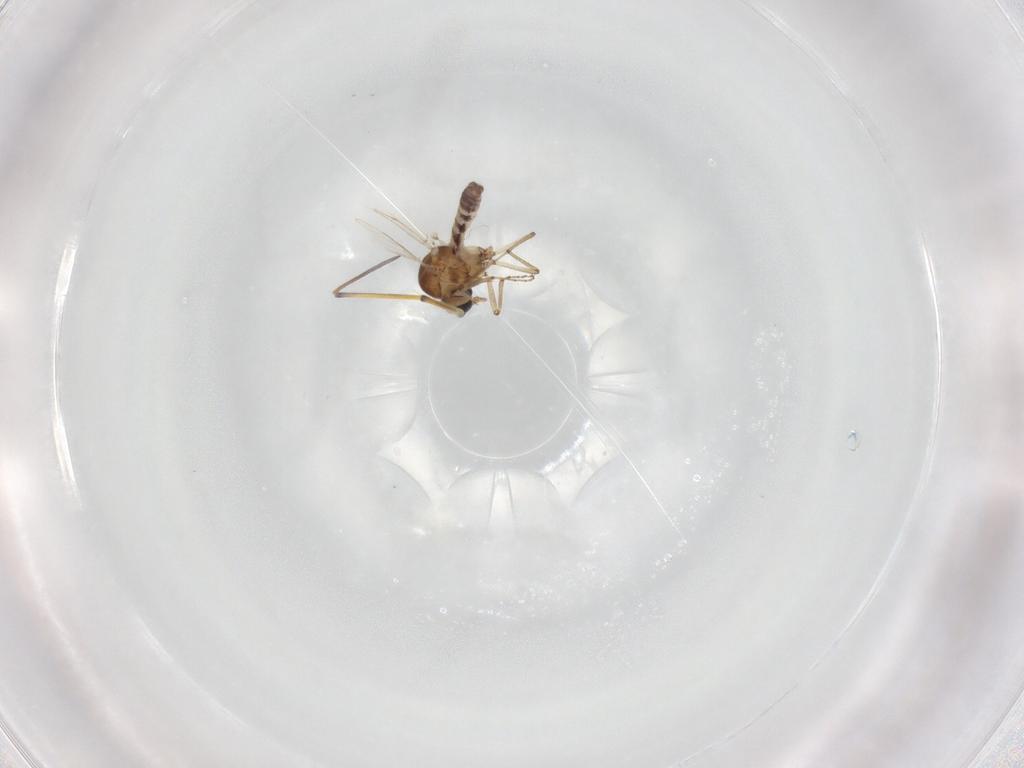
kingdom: Animalia
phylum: Arthropoda
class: Insecta
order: Diptera
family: Ceratopogonidae
